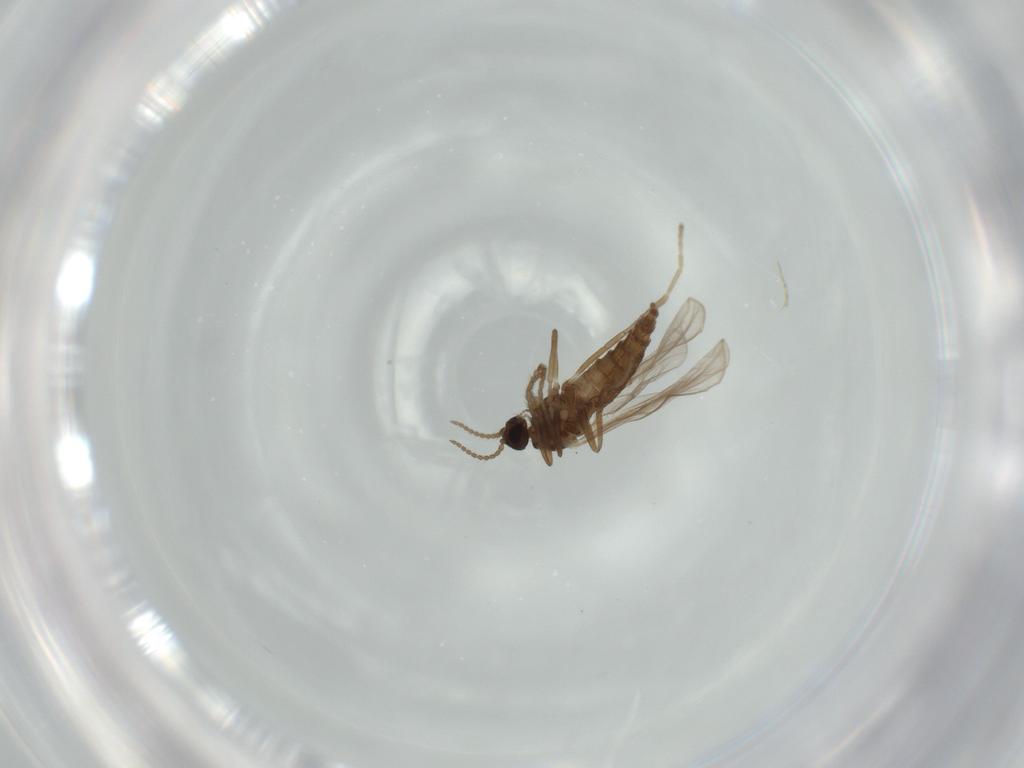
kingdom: Animalia
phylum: Arthropoda
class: Insecta
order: Diptera
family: Cecidomyiidae
